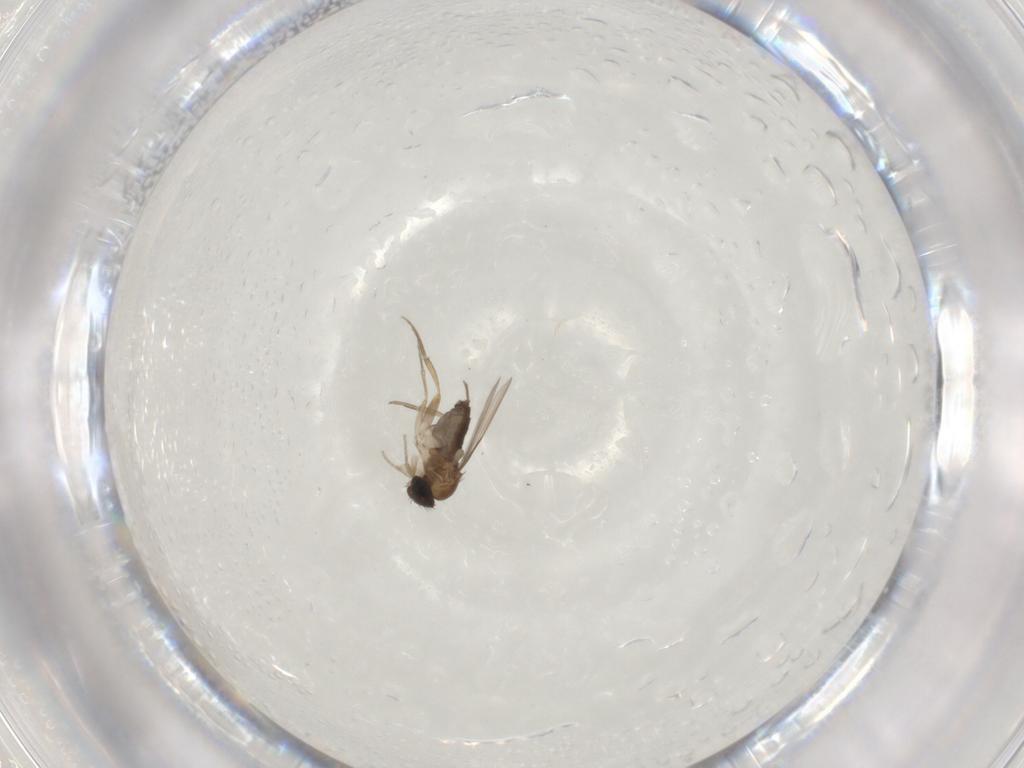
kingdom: Animalia
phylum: Arthropoda
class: Insecta
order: Diptera
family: Phoridae
